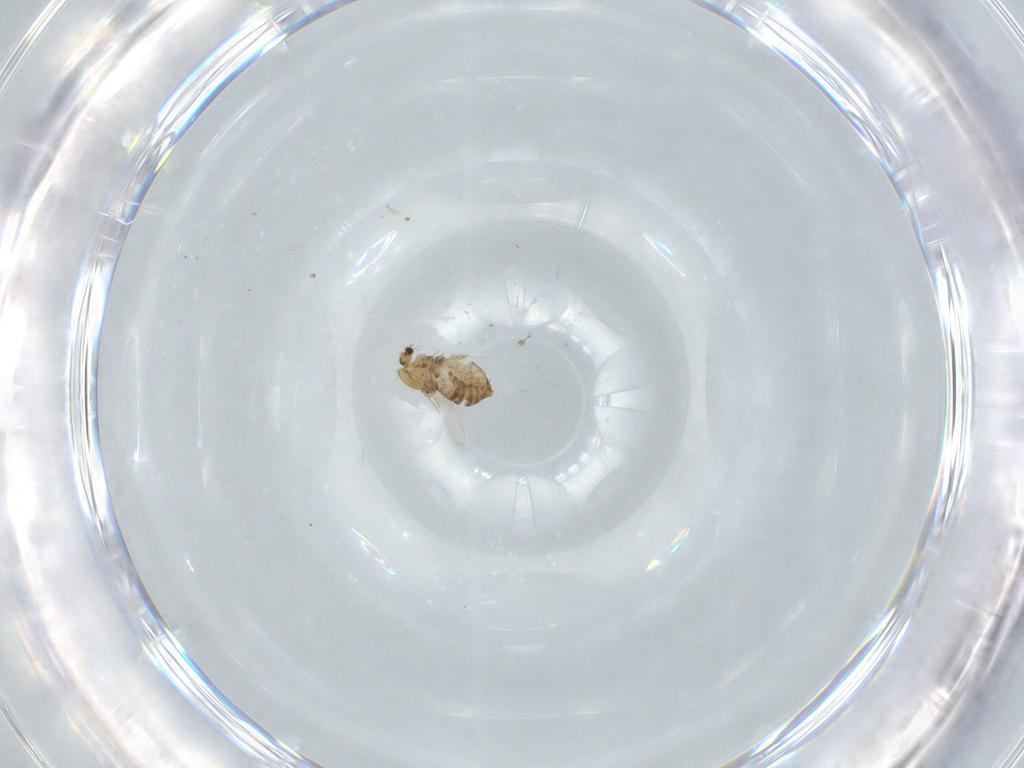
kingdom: Animalia
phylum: Arthropoda
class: Insecta
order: Diptera
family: Chironomidae
